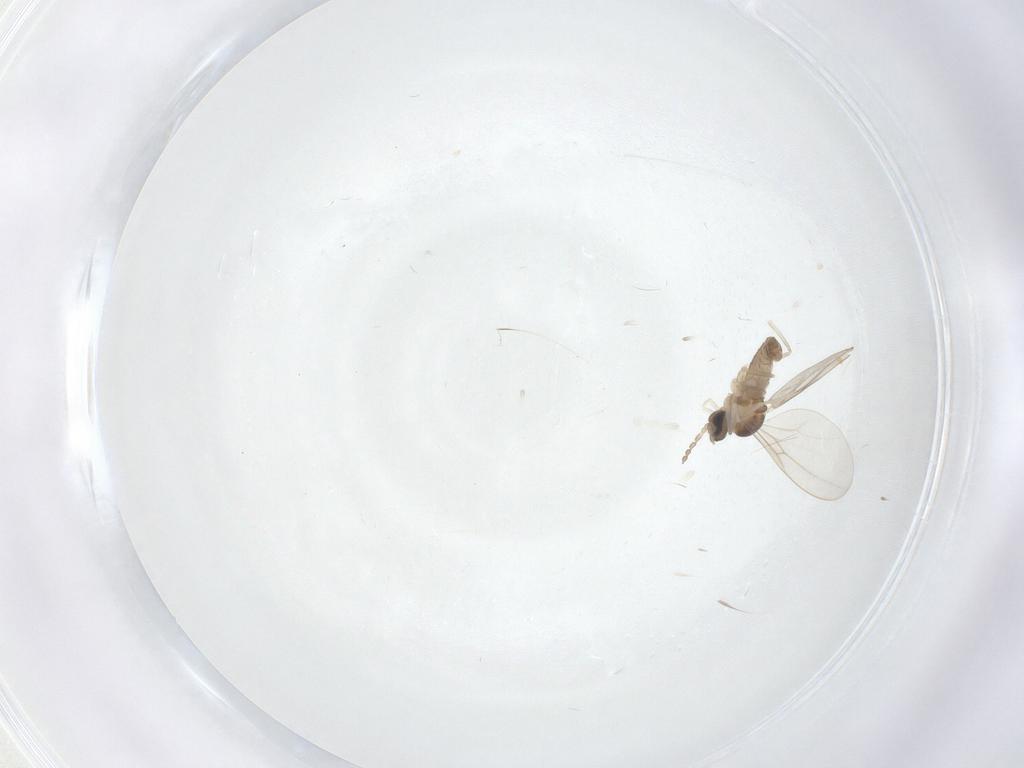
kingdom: Animalia
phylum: Arthropoda
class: Insecta
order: Diptera
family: Cecidomyiidae
